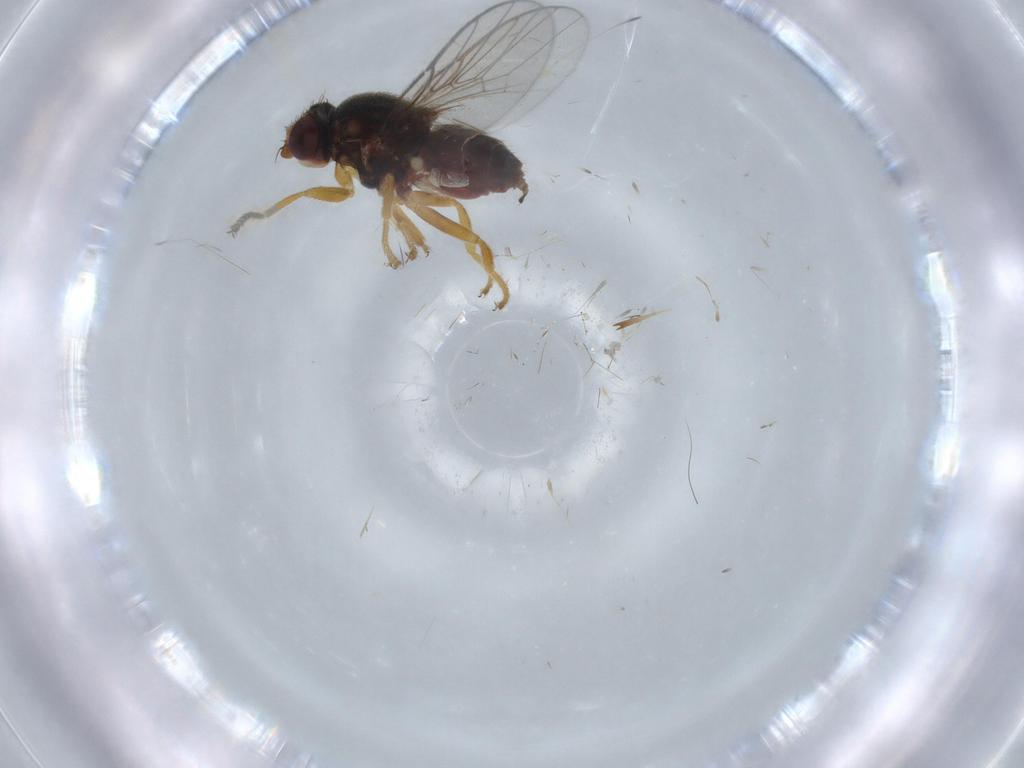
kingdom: Animalia
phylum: Arthropoda
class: Insecta
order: Diptera
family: Chloropidae
